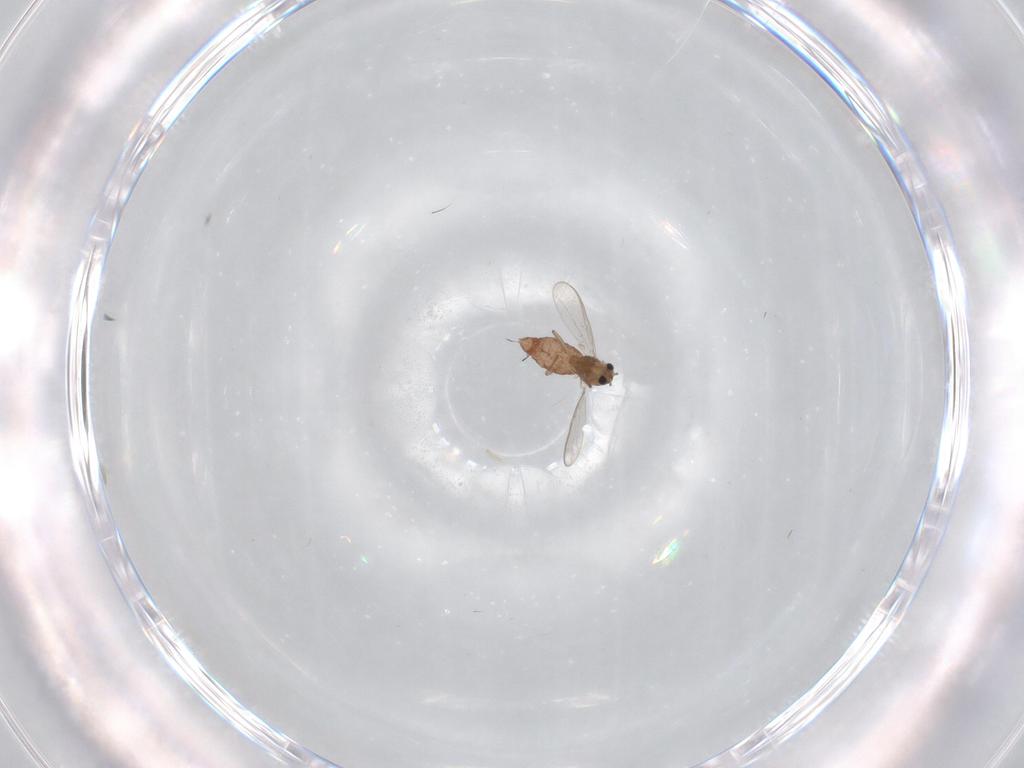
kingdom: Animalia
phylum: Arthropoda
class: Insecta
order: Diptera
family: Chironomidae
